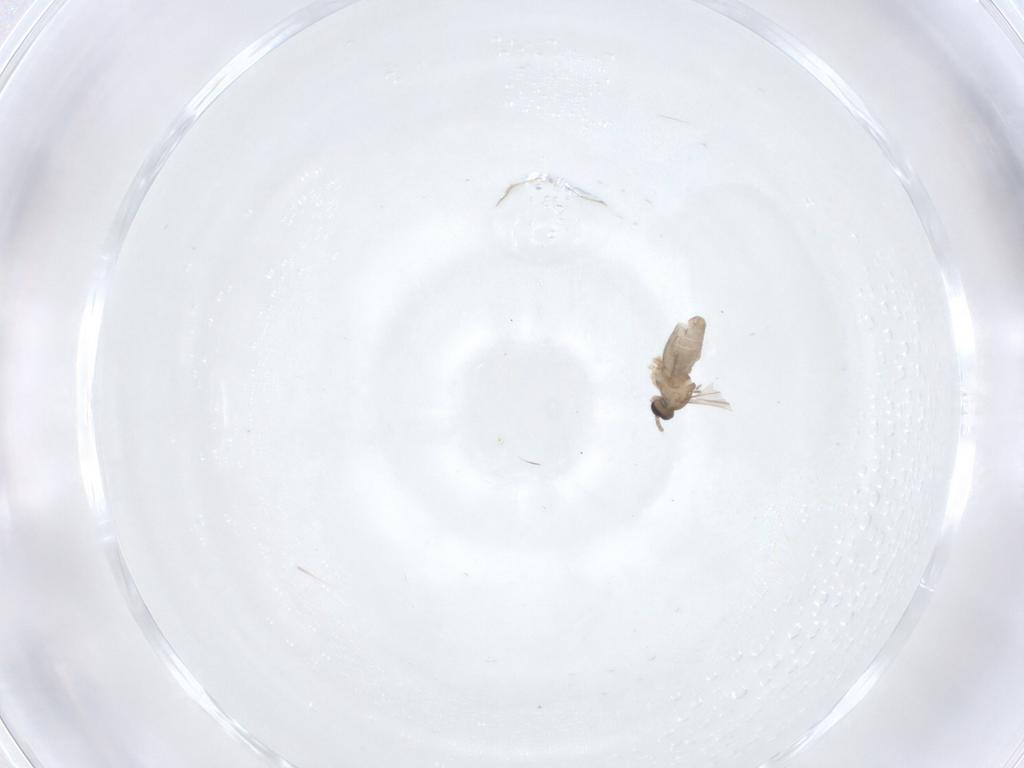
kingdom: Animalia
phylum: Arthropoda
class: Insecta
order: Diptera
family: Cecidomyiidae
